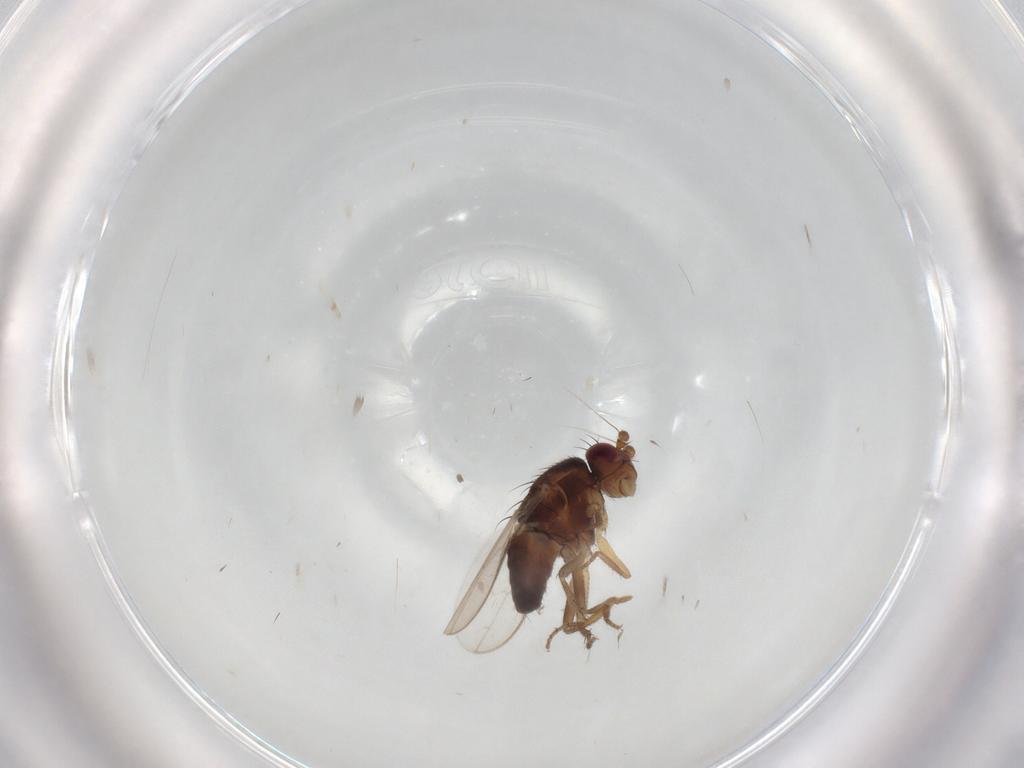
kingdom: Animalia
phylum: Arthropoda
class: Insecta
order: Diptera
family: Sphaeroceridae
